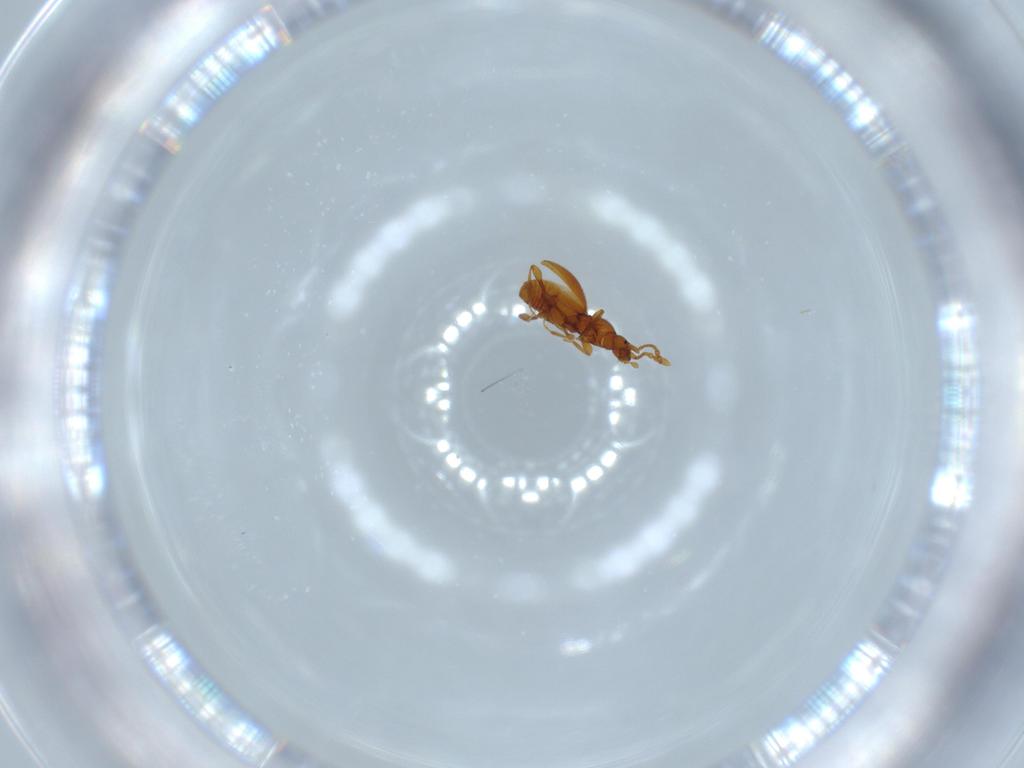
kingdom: Animalia
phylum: Arthropoda
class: Insecta
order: Coleoptera
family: Staphylinidae
